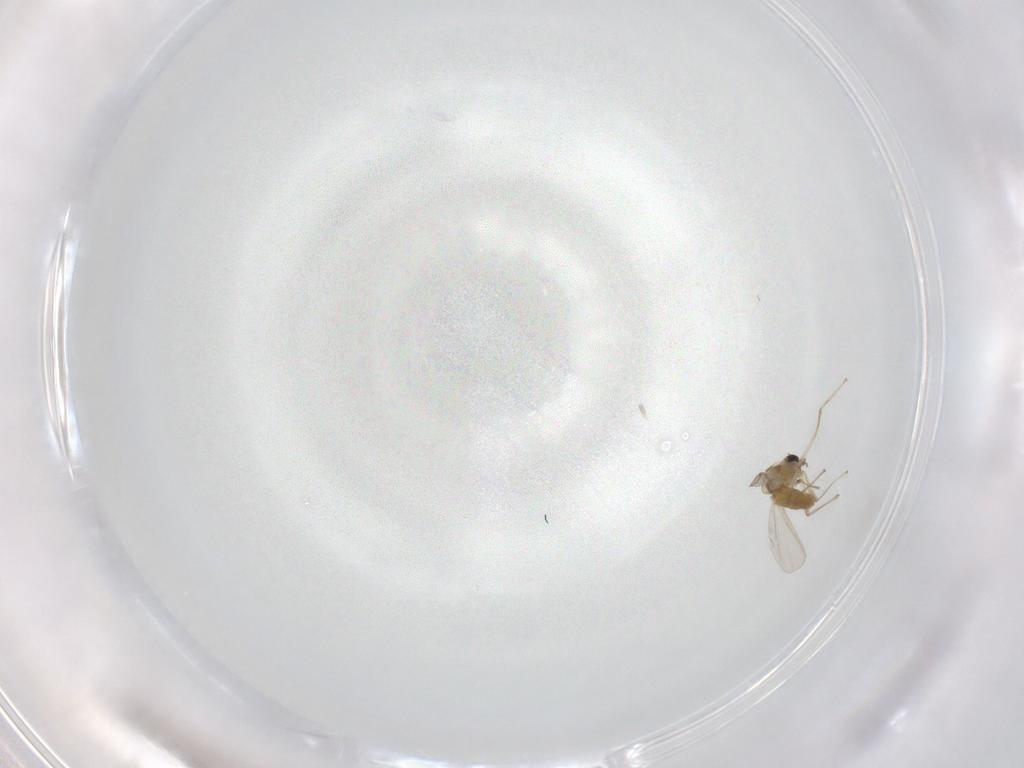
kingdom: Animalia
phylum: Arthropoda
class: Insecta
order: Diptera
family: Chironomidae
